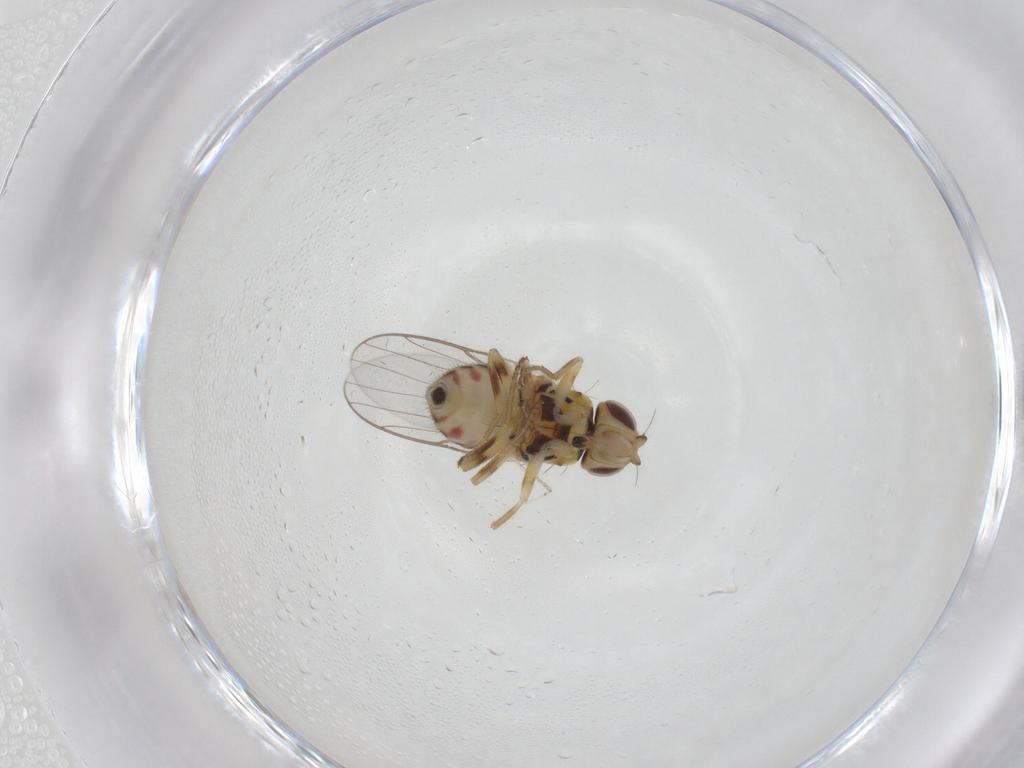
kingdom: Animalia
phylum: Arthropoda
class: Insecta
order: Diptera
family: Chloropidae
